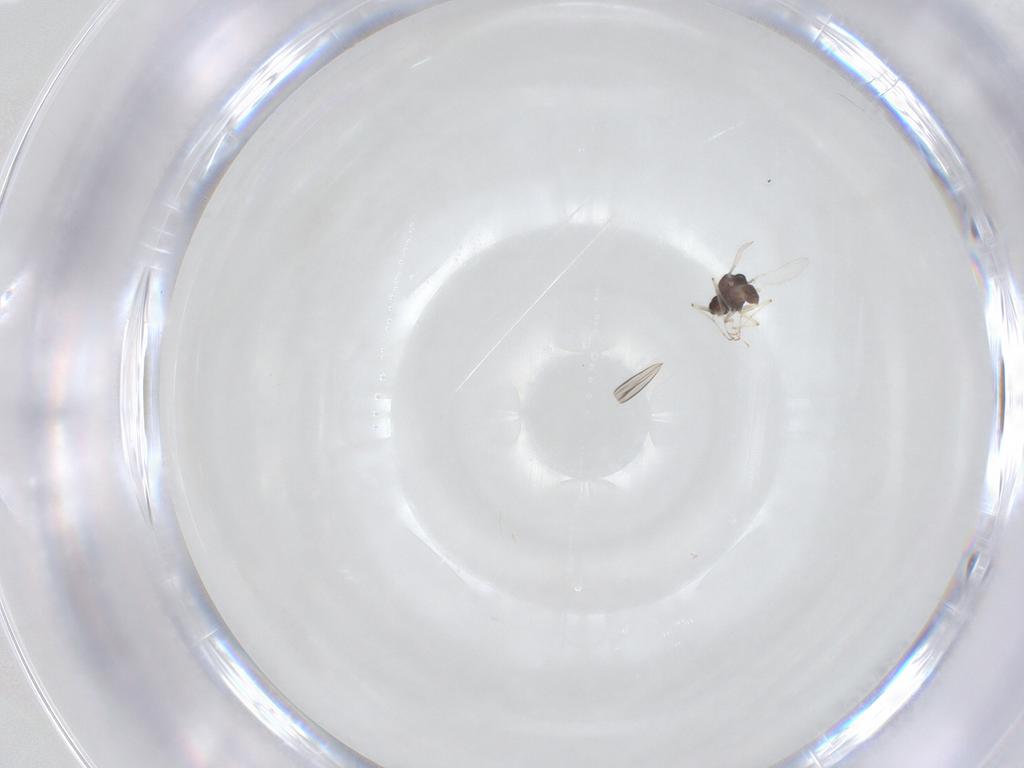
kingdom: Animalia
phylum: Arthropoda
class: Insecta
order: Diptera
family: Chironomidae
